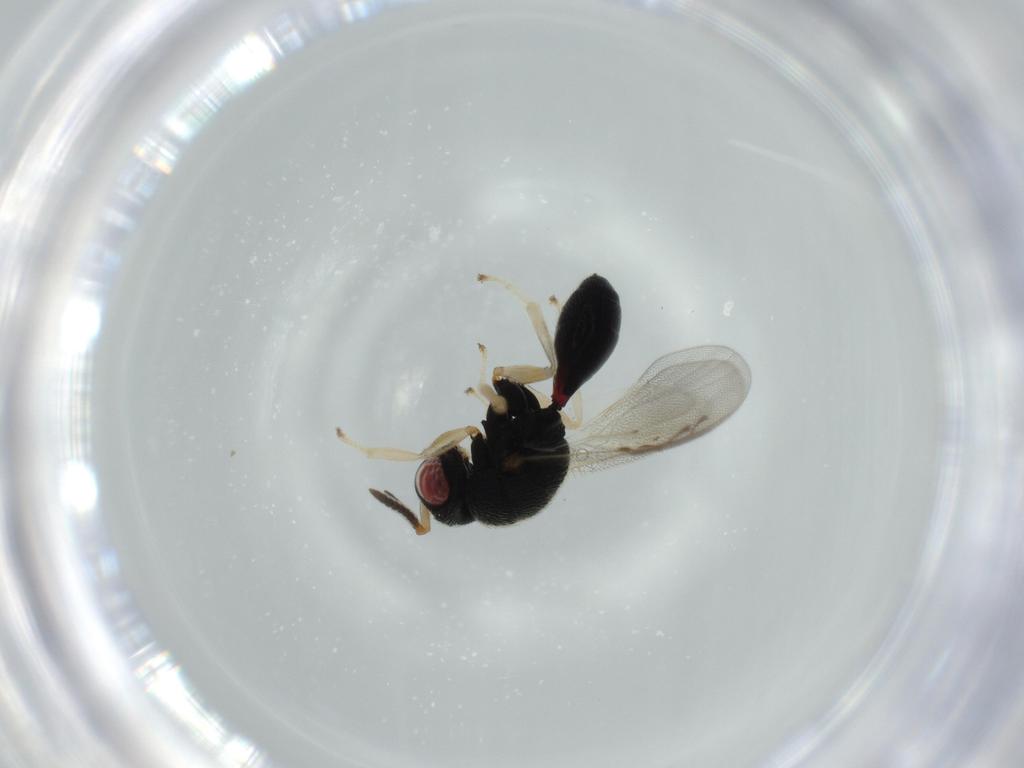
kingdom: Animalia
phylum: Arthropoda
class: Insecta
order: Hymenoptera
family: Eurytomidae
